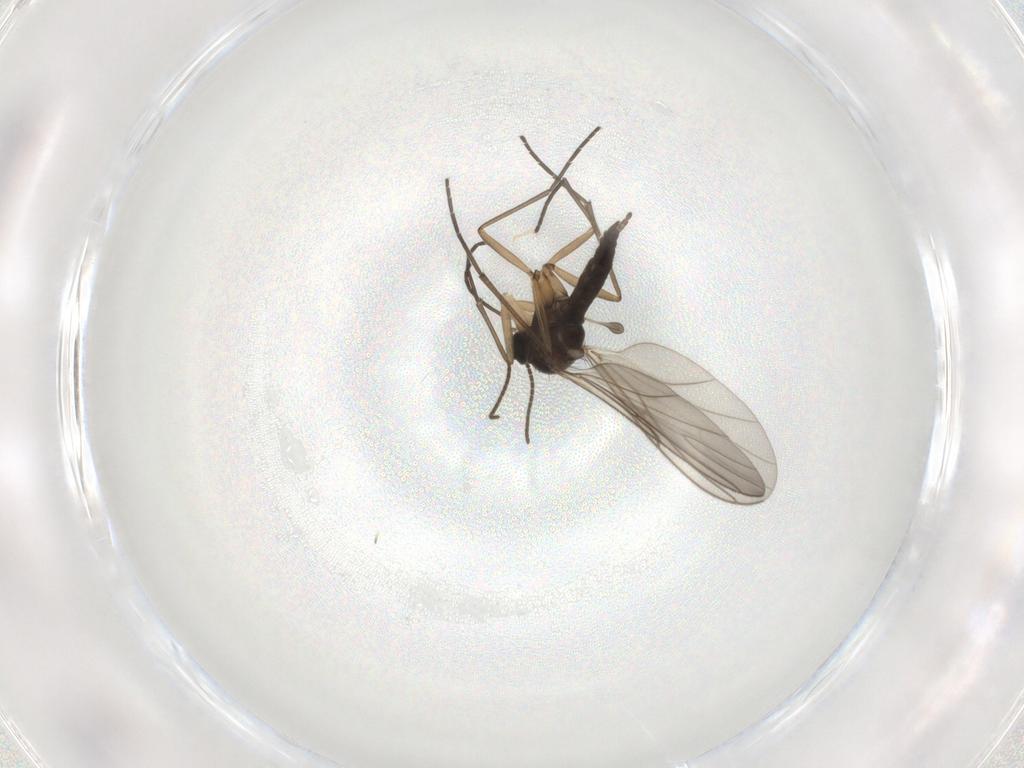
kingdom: Animalia
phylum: Arthropoda
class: Insecta
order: Diptera
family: Sciaridae
